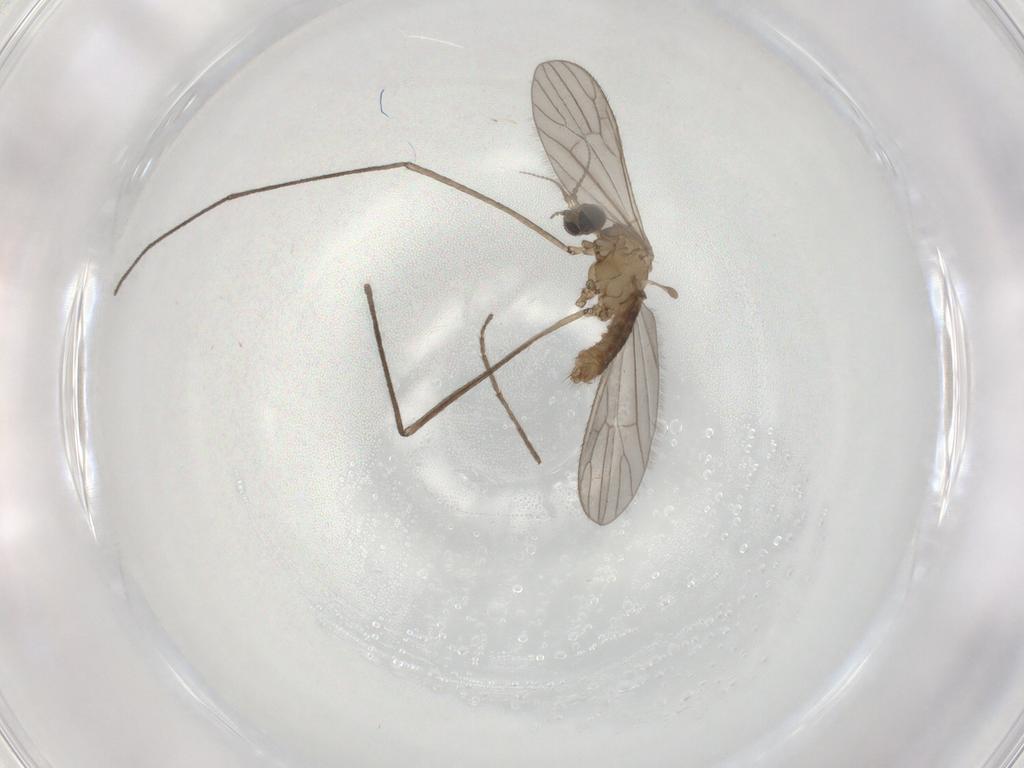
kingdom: Animalia
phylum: Arthropoda
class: Insecta
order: Diptera
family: Limoniidae
